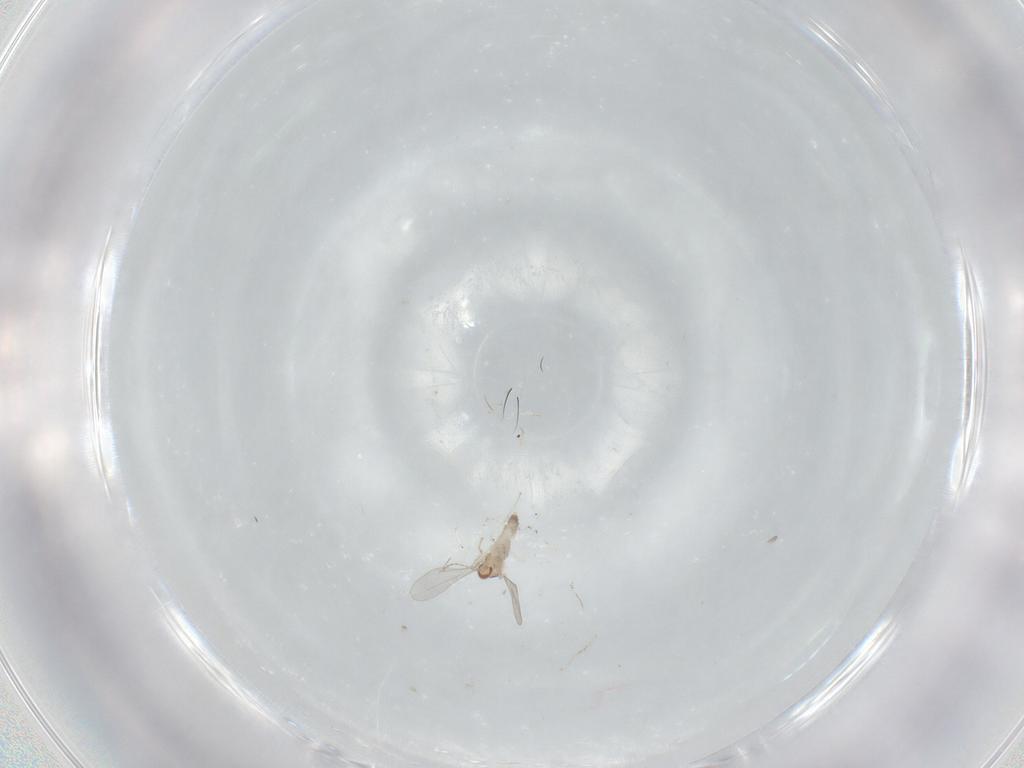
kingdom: Animalia
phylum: Arthropoda
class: Insecta
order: Diptera
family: Cecidomyiidae
